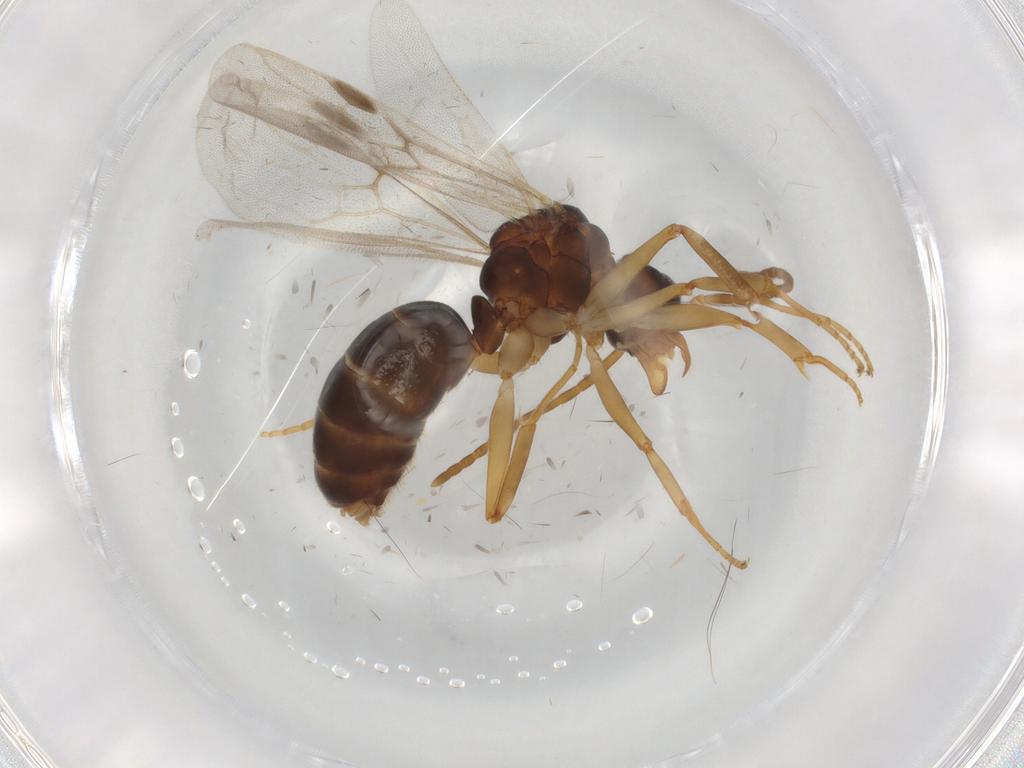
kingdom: Animalia
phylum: Arthropoda
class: Insecta
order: Hymenoptera
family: Formicidae
